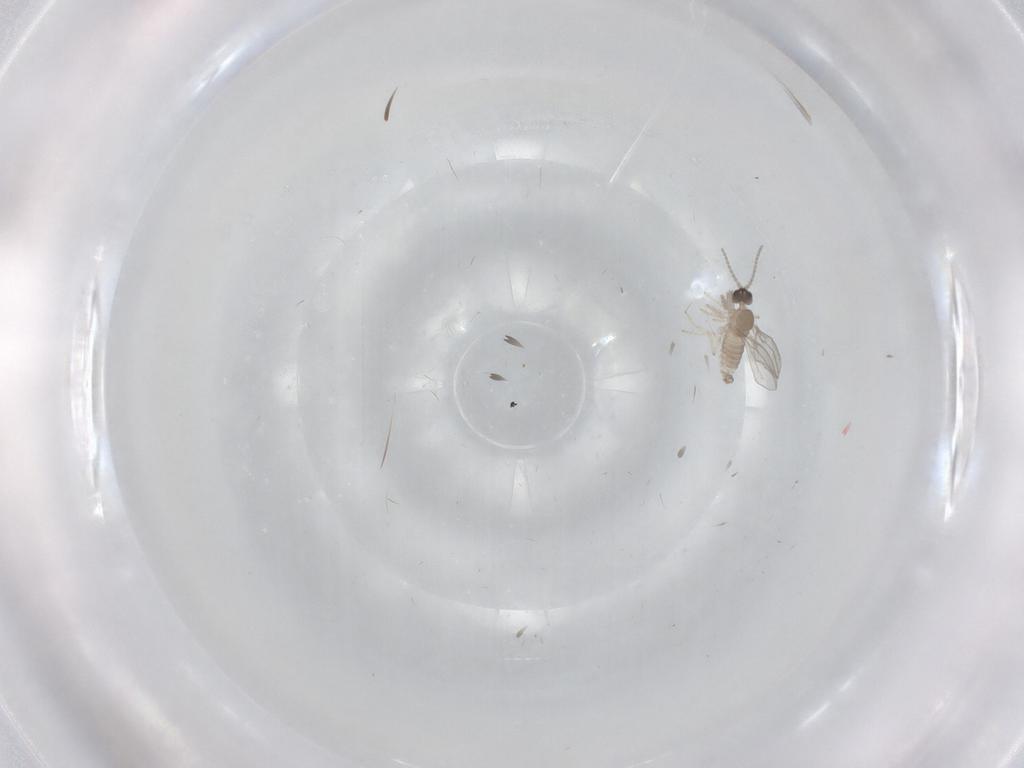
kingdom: Animalia
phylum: Arthropoda
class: Insecta
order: Diptera
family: Cecidomyiidae
